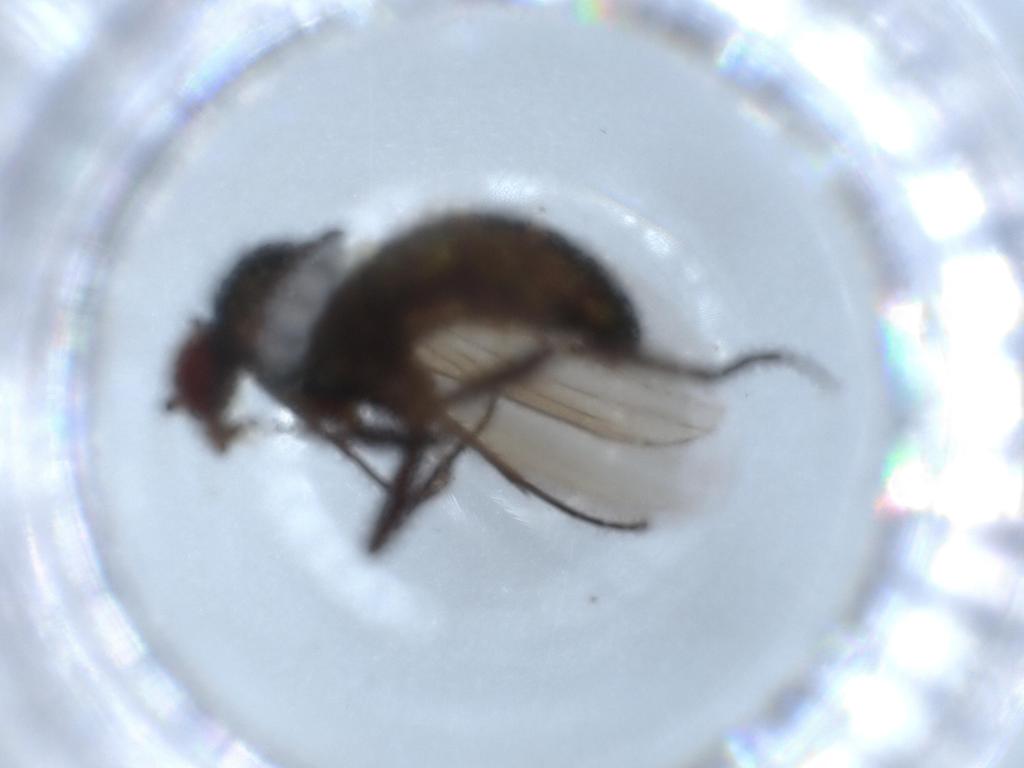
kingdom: Animalia
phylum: Arthropoda
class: Insecta
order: Diptera
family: Sciaridae
